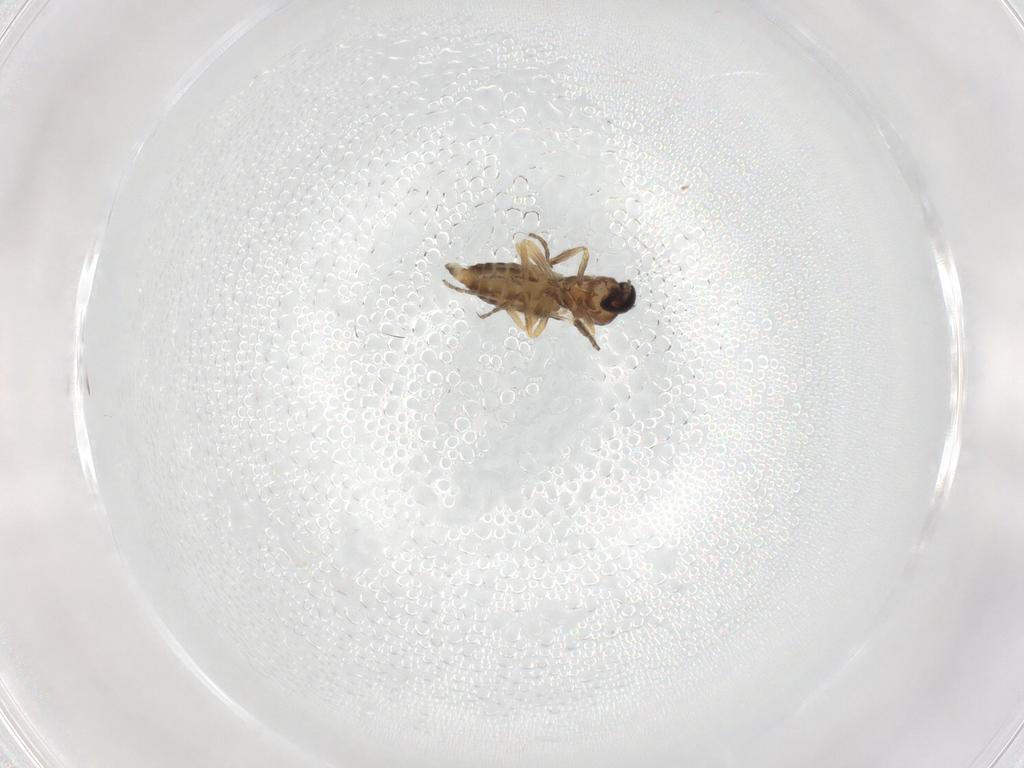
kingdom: Animalia
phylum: Arthropoda
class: Insecta
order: Diptera
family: Ceratopogonidae
